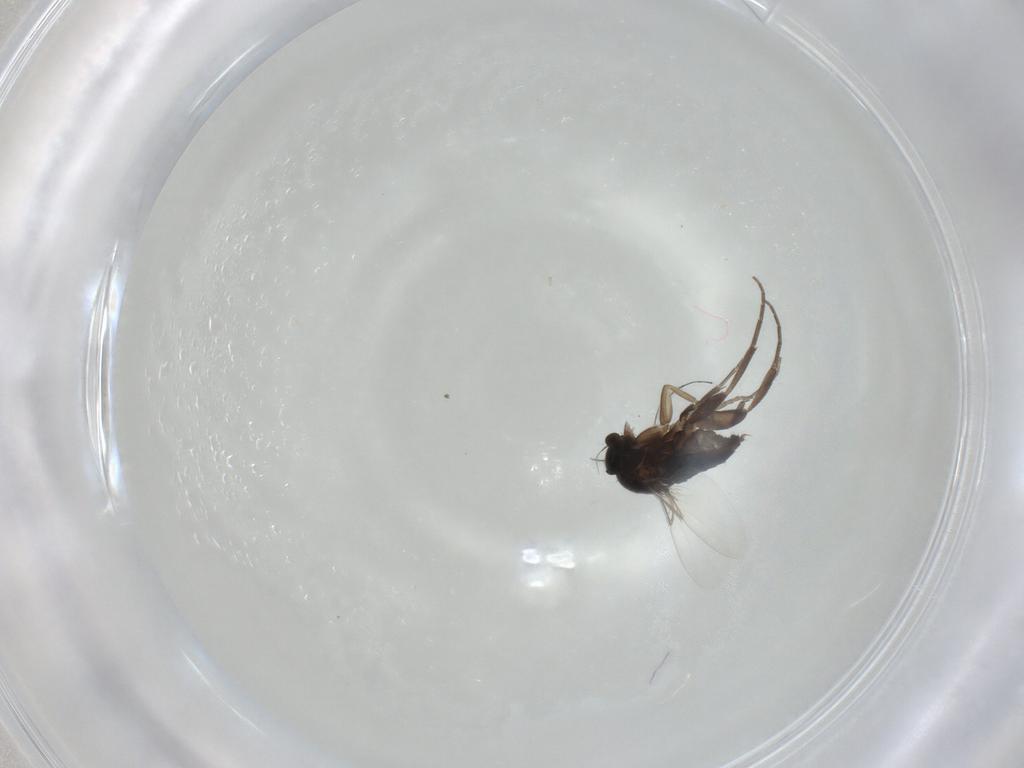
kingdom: Animalia
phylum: Arthropoda
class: Insecta
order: Diptera
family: Phoridae
